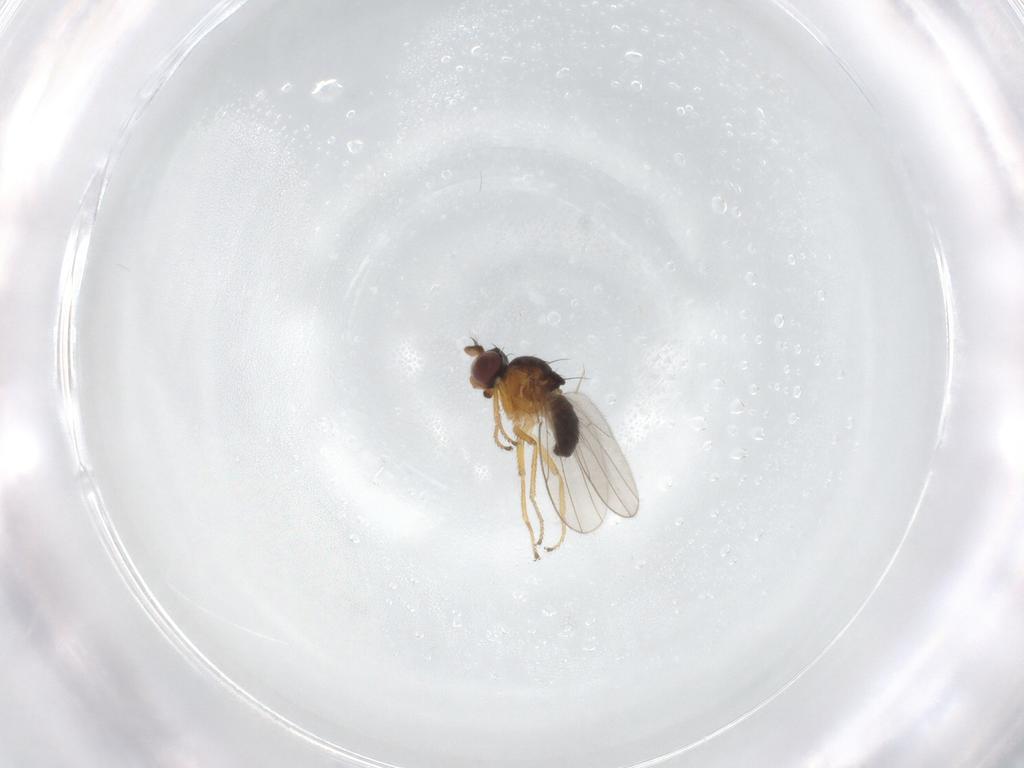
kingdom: Animalia
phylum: Arthropoda
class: Insecta
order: Diptera
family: Ephydridae
